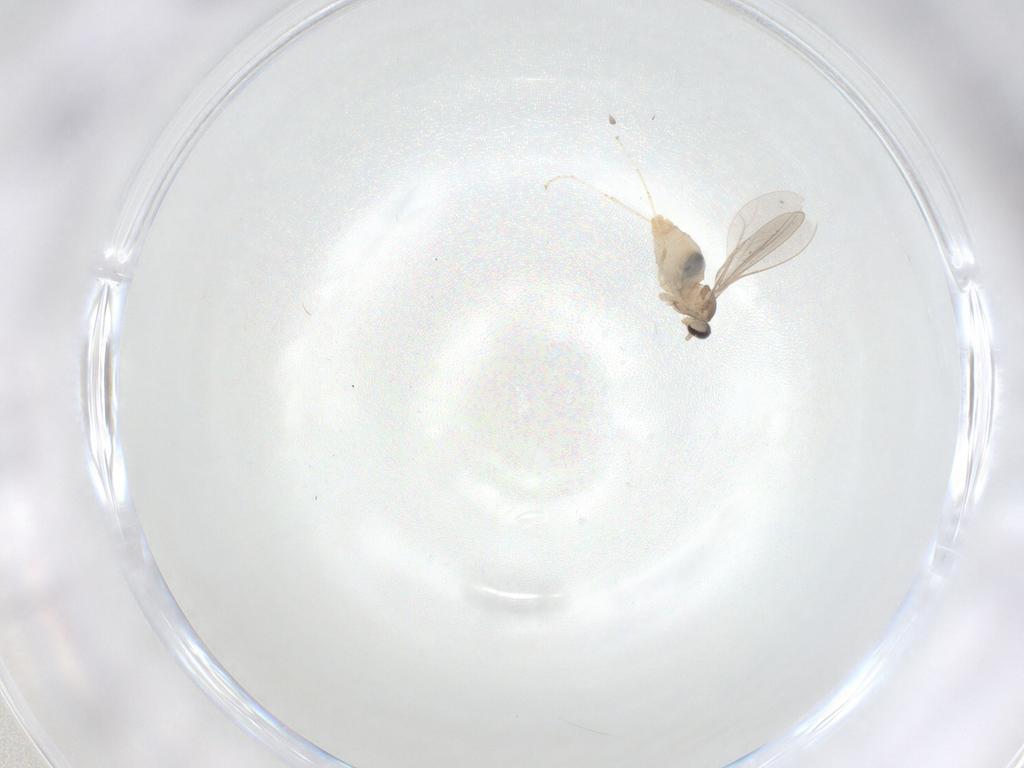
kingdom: Animalia
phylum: Arthropoda
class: Insecta
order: Diptera
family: Cecidomyiidae
